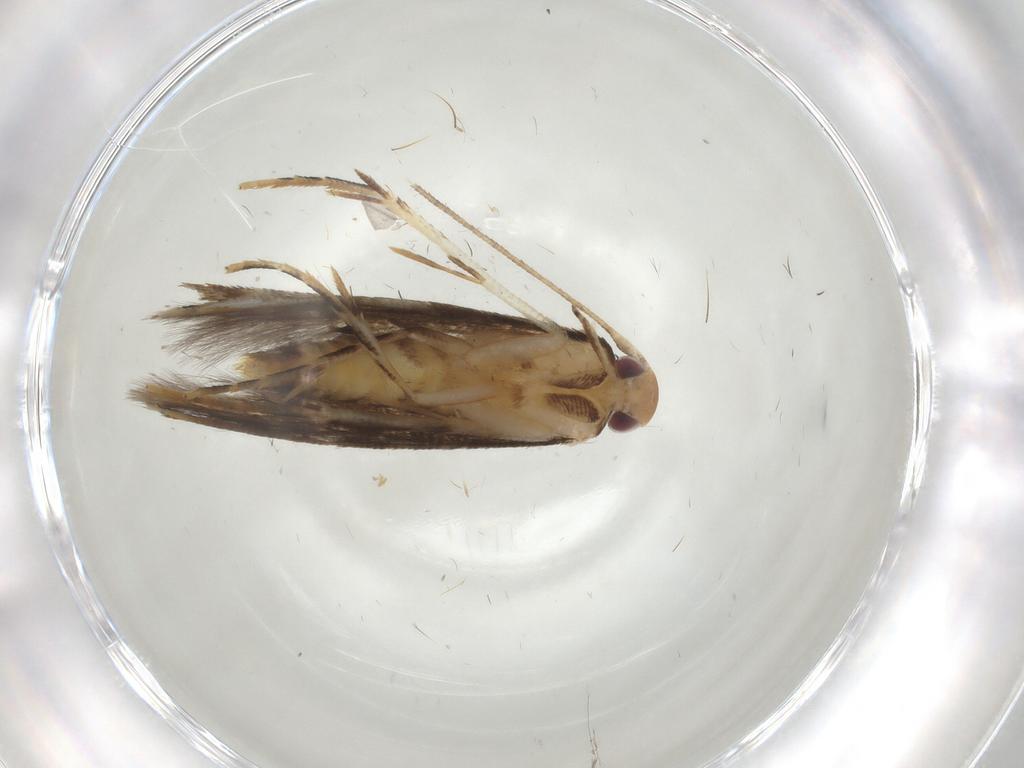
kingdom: Animalia
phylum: Arthropoda
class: Insecta
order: Lepidoptera
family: Momphidae
